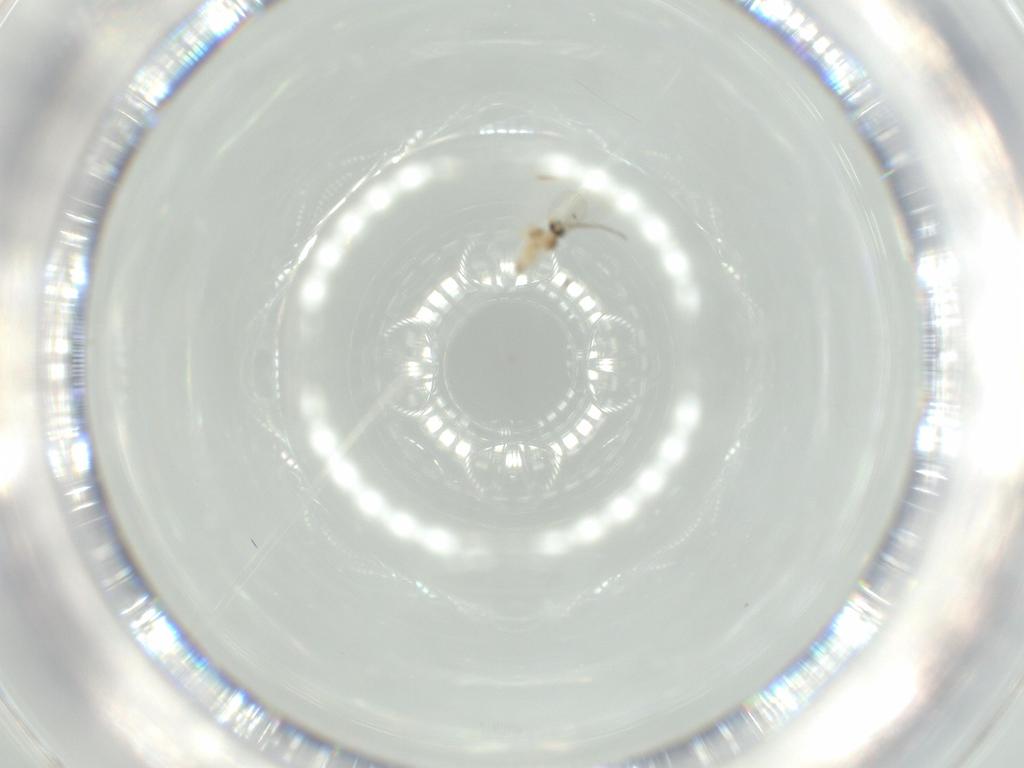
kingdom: Animalia
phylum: Arthropoda
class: Insecta
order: Diptera
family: Cecidomyiidae
